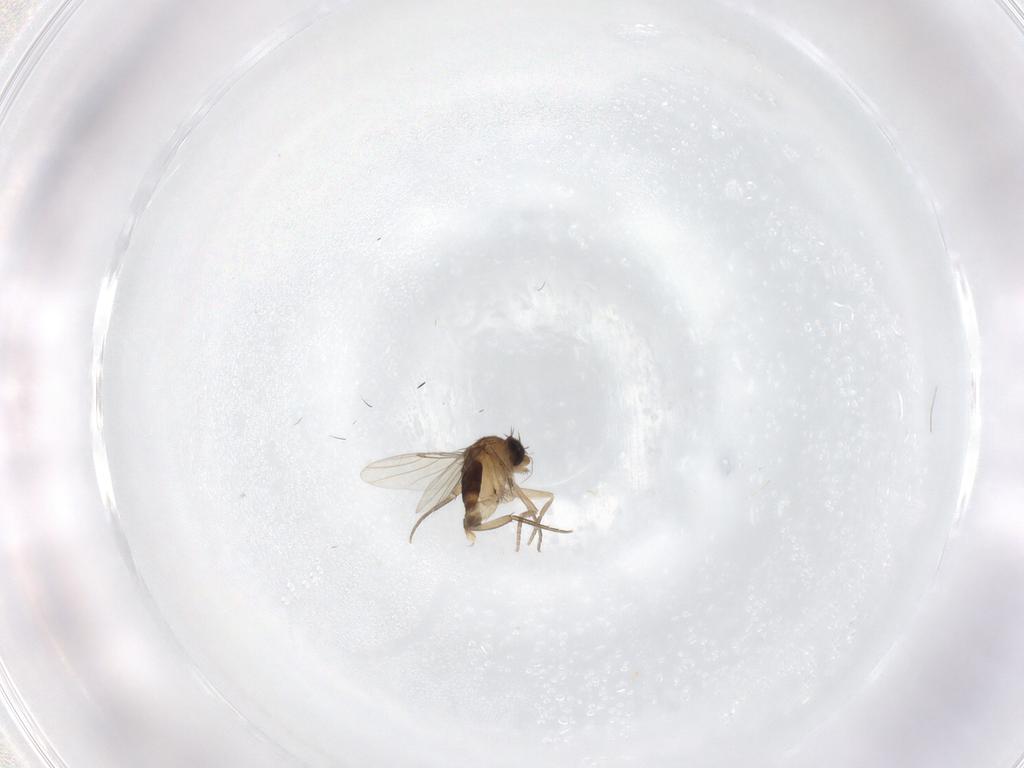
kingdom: Animalia
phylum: Arthropoda
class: Insecta
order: Diptera
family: Phoridae
